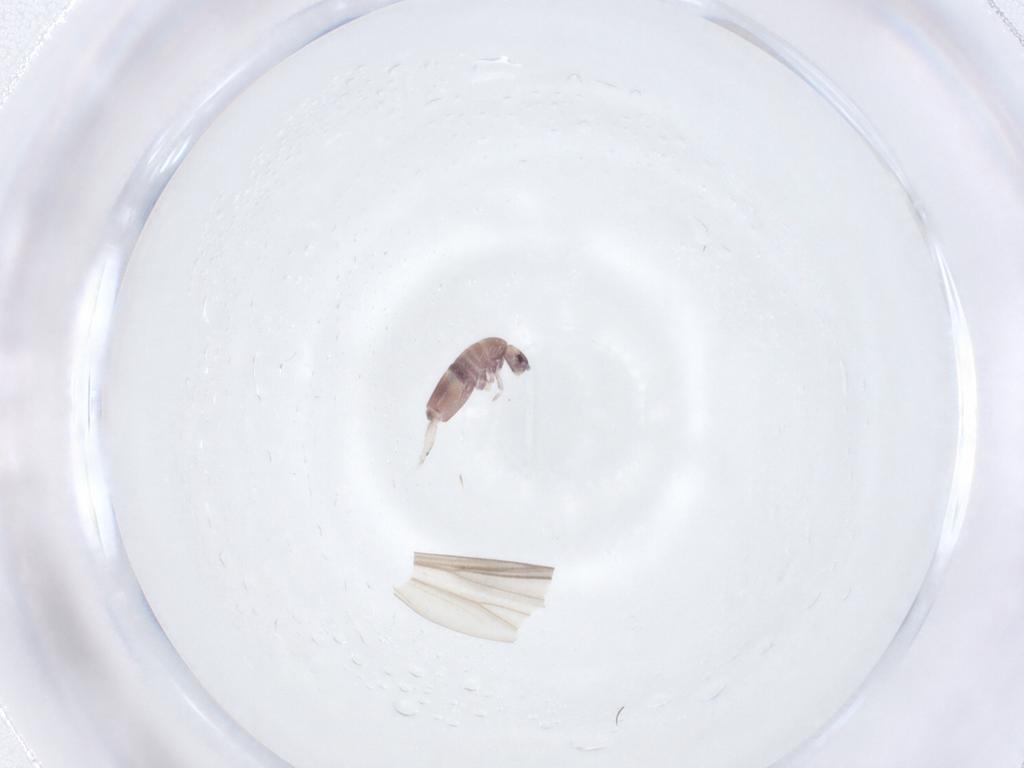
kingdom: Animalia
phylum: Arthropoda
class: Collembola
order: Entomobryomorpha
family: Entomobryidae
